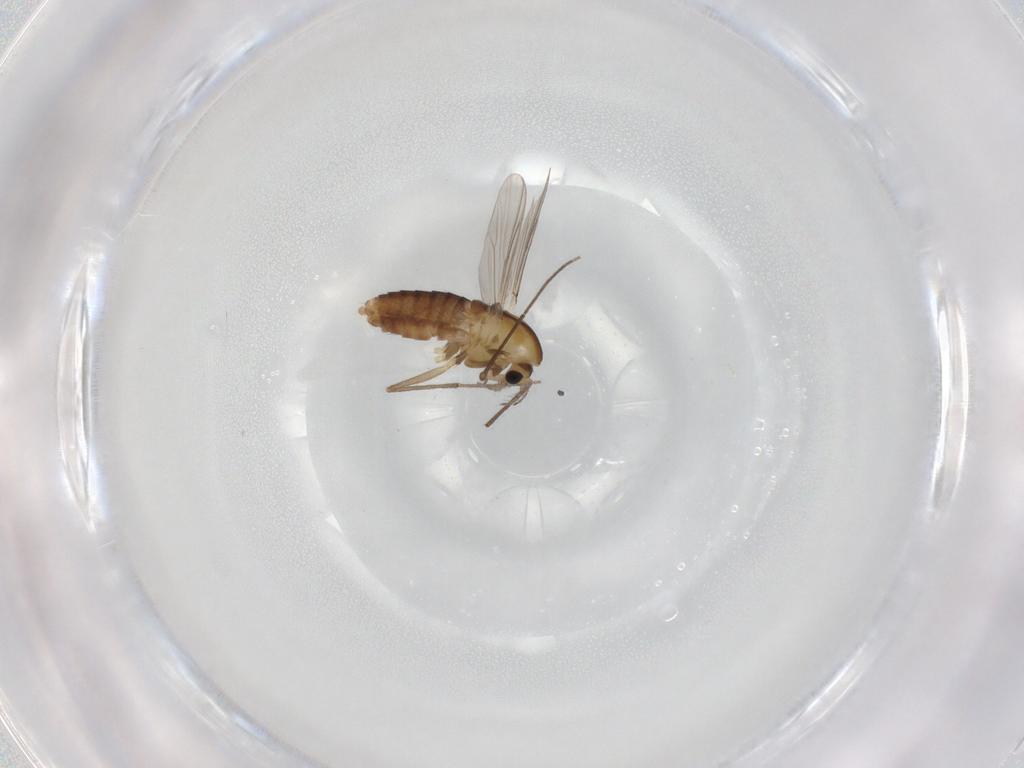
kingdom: Animalia
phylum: Arthropoda
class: Insecta
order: Diptera
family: Chironomidae
